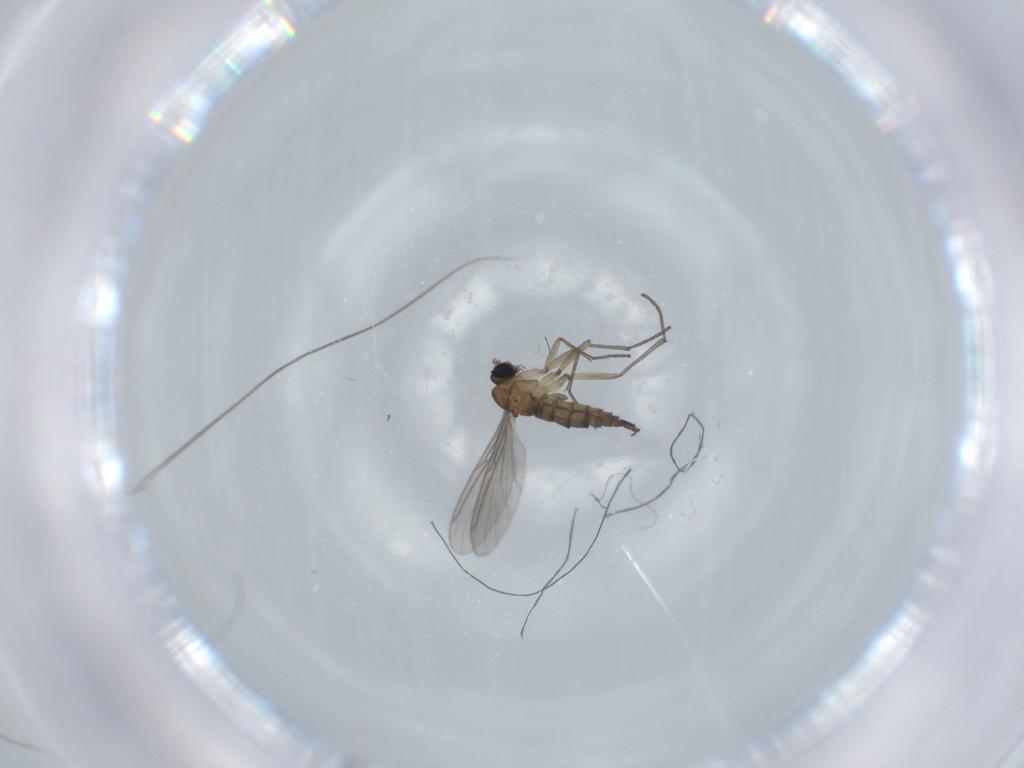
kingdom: Animalia
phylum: Arthropoda
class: Insecta
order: Diptera
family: Sciaridae
